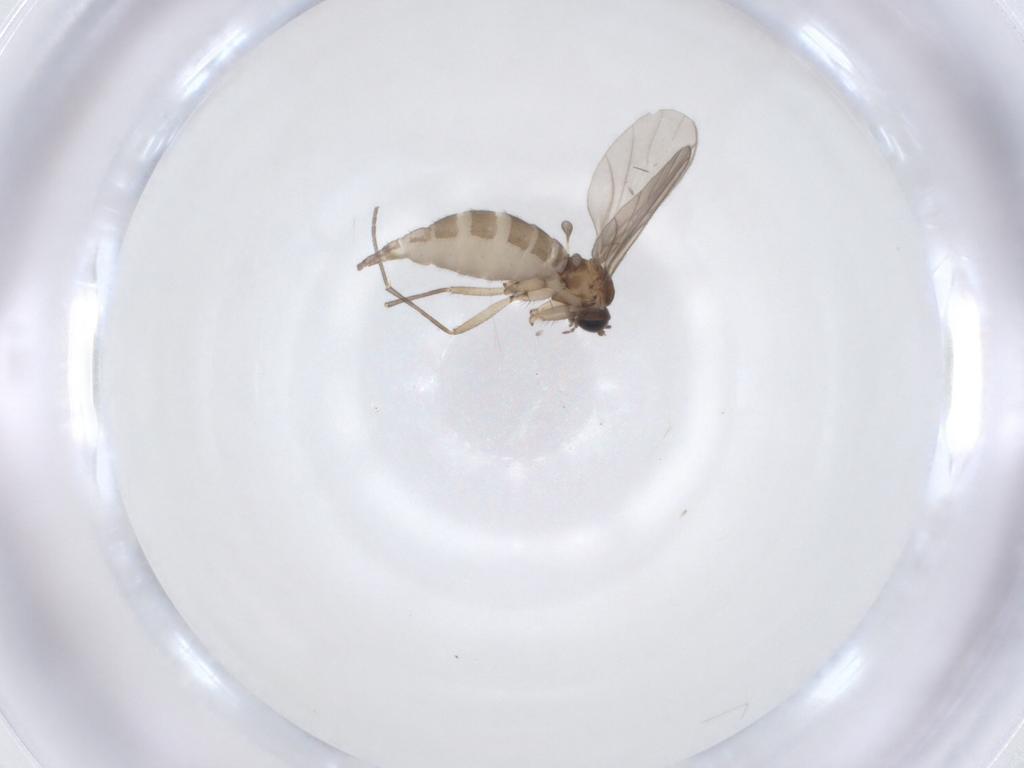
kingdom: Animalia
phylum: Arthropoda
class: Insecta
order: Diptera
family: Sciaridae
